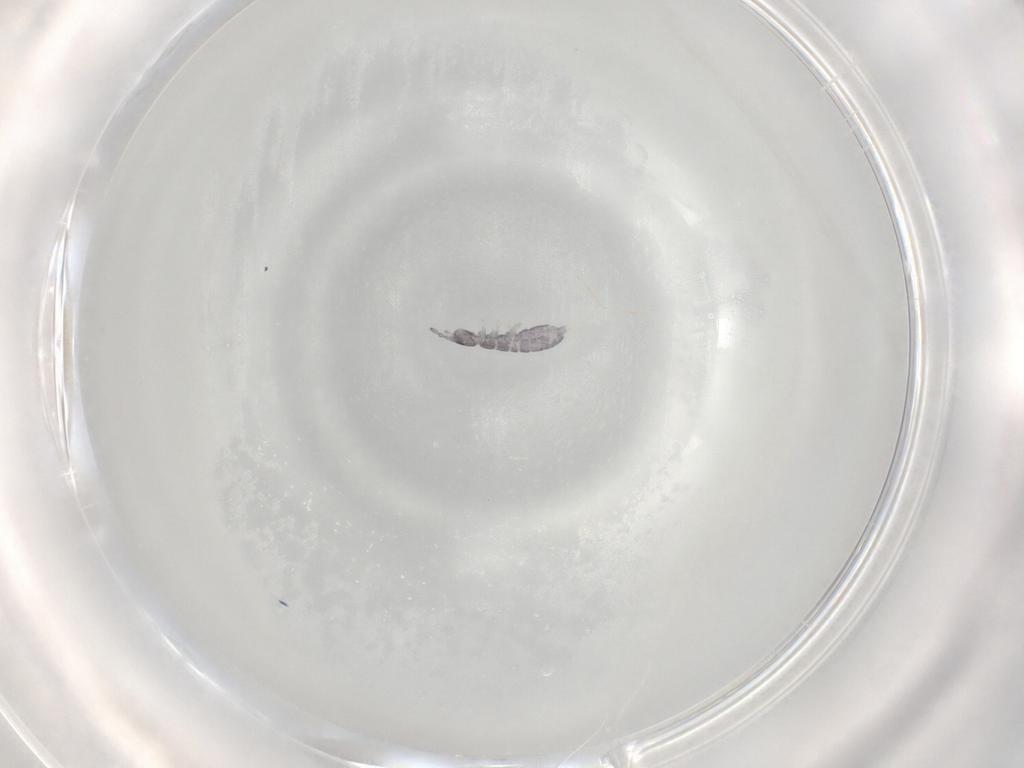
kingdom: Animalia
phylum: Arthropoda
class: Collembola
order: Entomobryomorpha
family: Isotomidae
